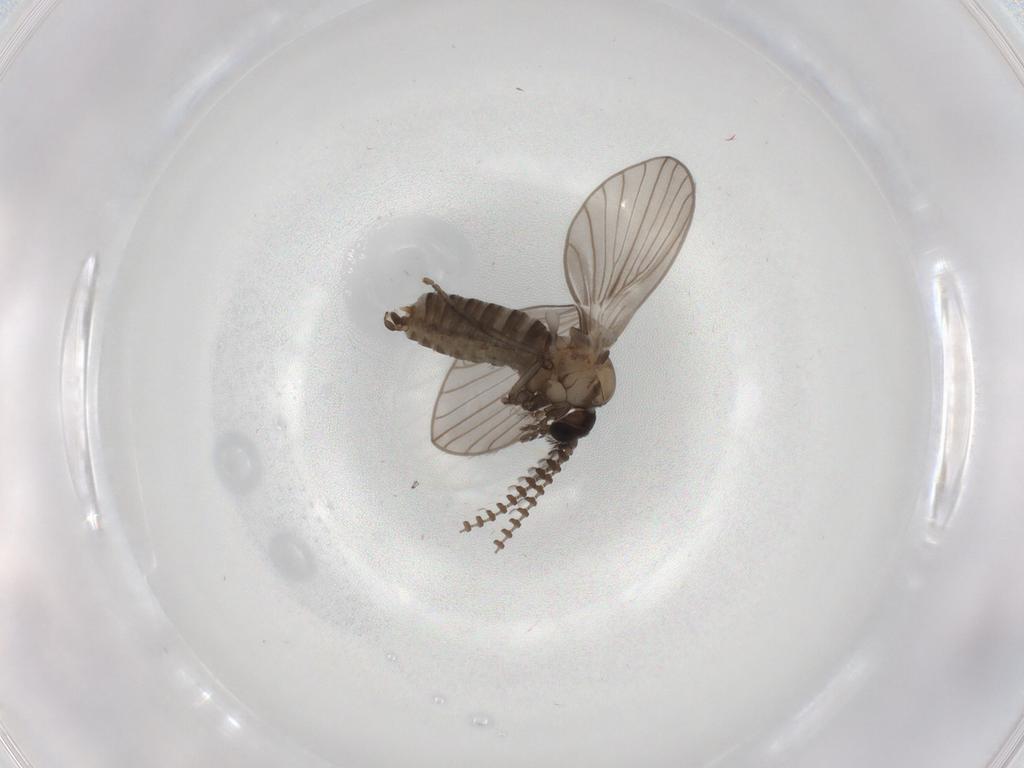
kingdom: Animalia
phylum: Arthropoda
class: Insecta
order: Diptera
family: Psychodidae
